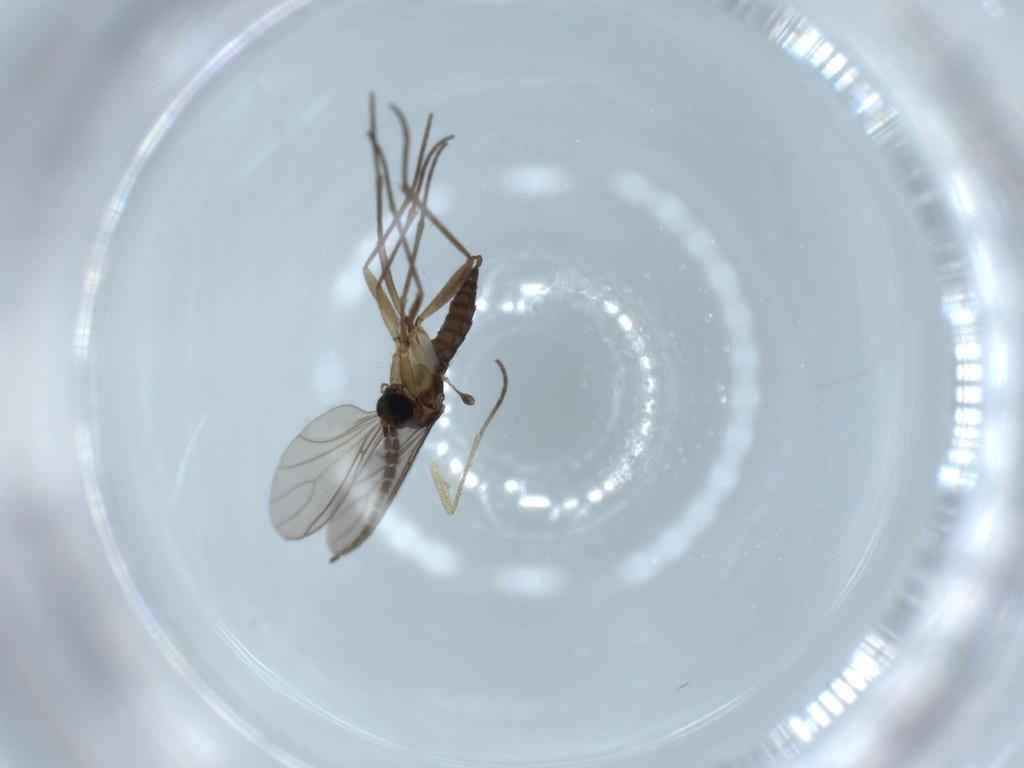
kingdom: Animalia
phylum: Arthropoda
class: Insecta
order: Diptera
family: Sciaridae
